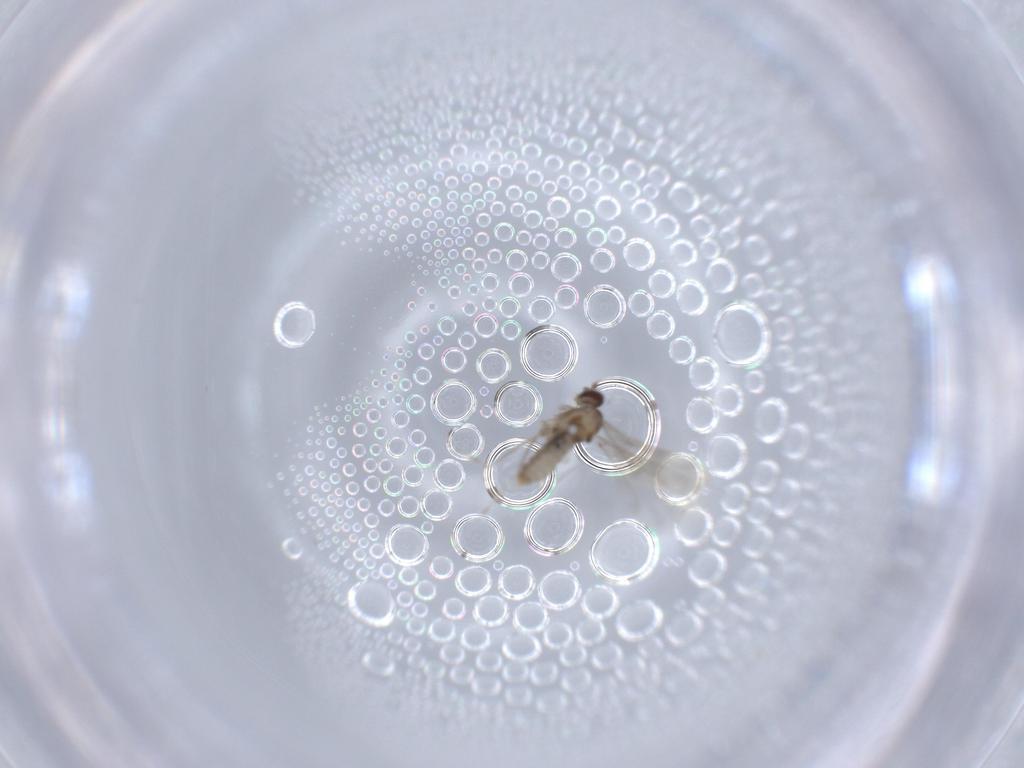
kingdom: Animalia
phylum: Arthropoda
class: Insecta
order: Diptera
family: Cecidomyiidae
